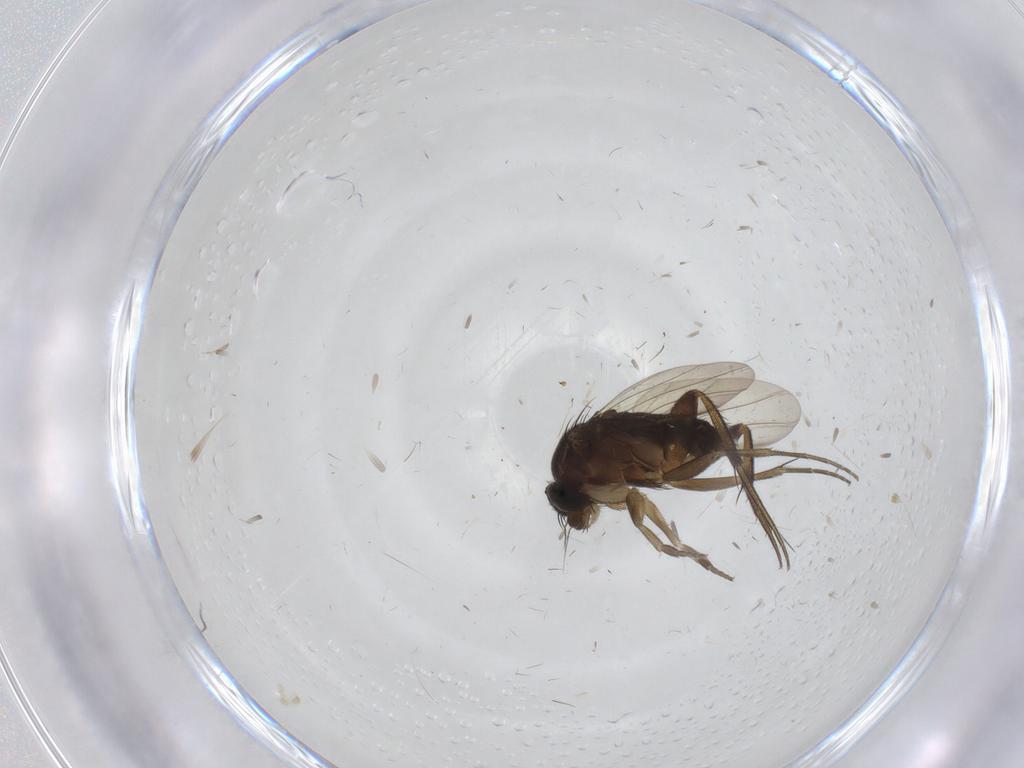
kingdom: Animalia
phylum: Arthropoda
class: Insecta
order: Diptera
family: Phoridae
